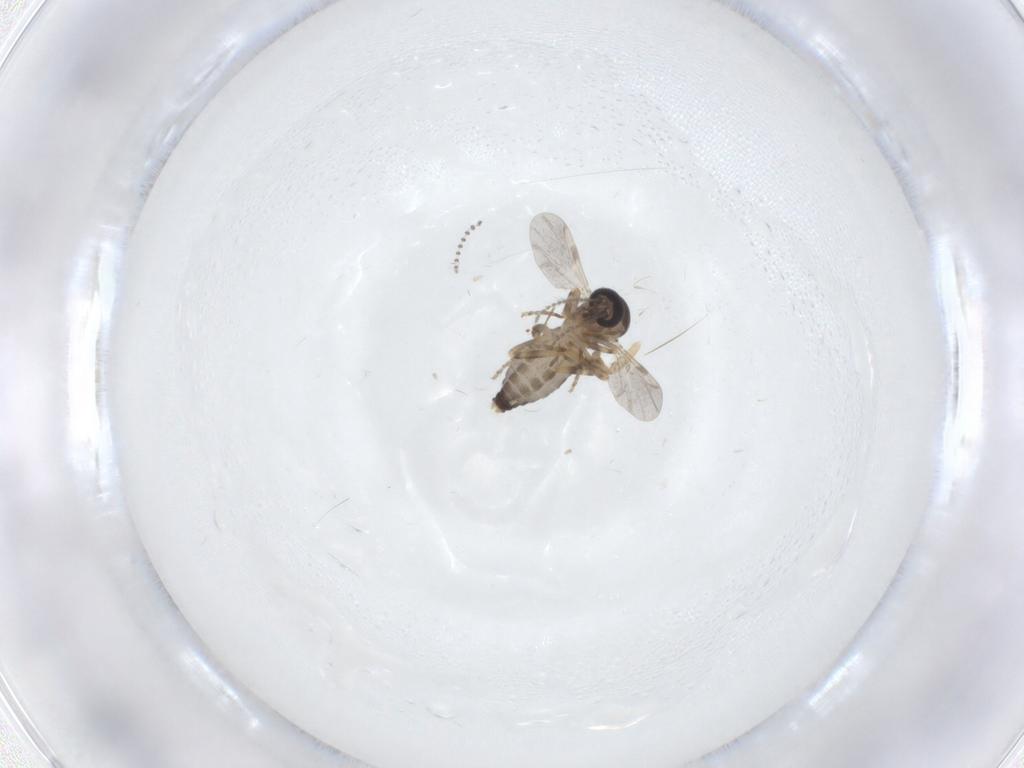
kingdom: Animalia
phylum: Arthropoda
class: Insecta
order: Diptera
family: Ceratopogonidae
